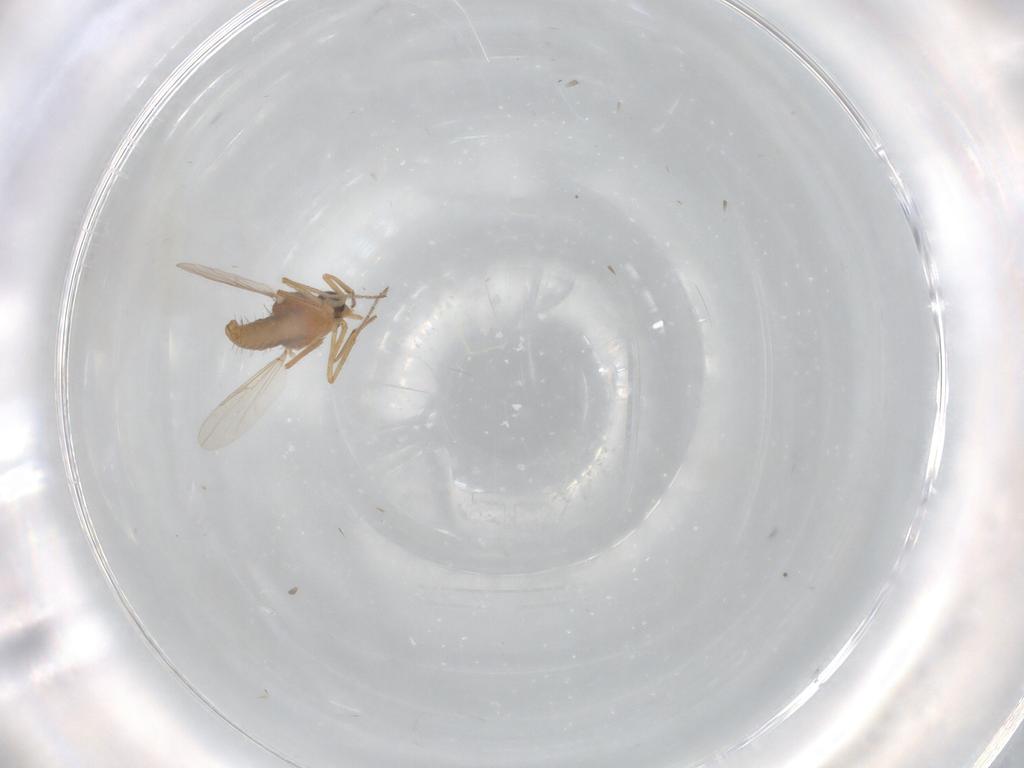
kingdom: Animalia
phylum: Arthropoda
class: Insecta
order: Diptera
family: Chironomidae
